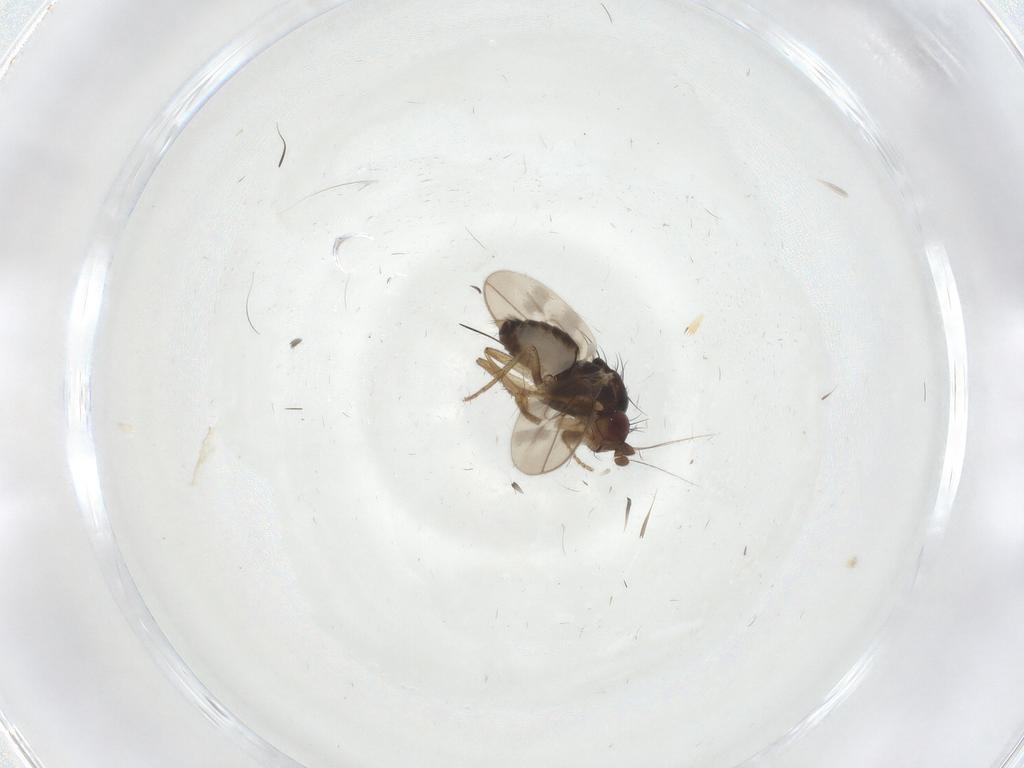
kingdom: Animalia
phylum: Arthropoda
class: Insecta
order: Diptera
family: Sphaeroceridae
